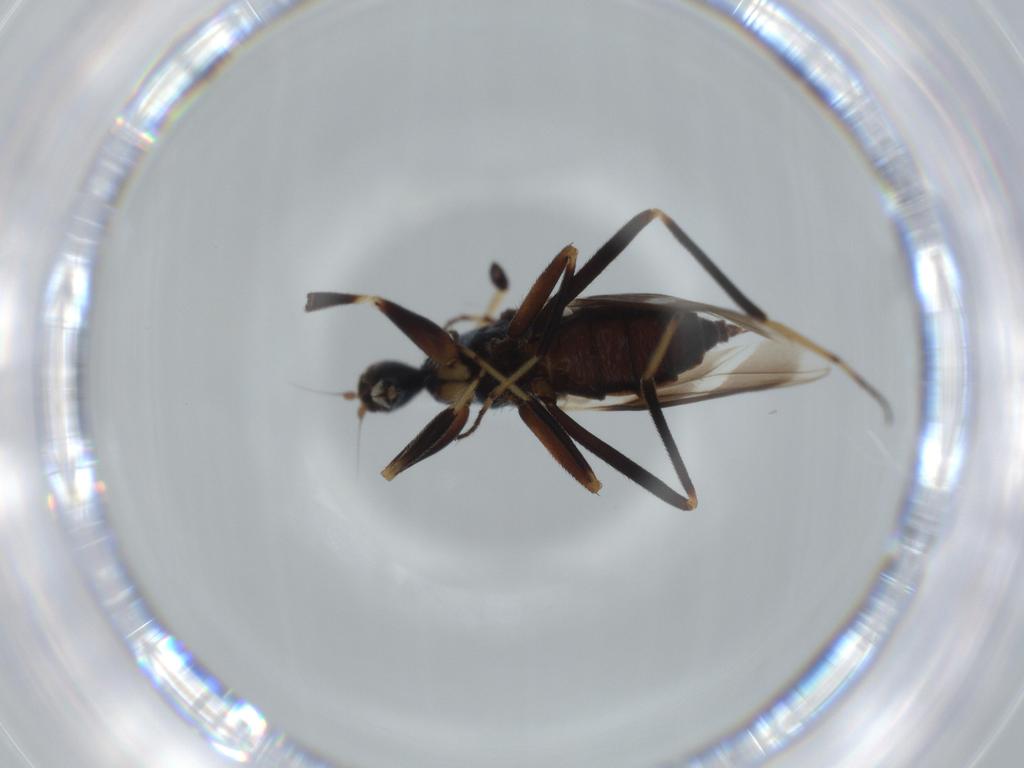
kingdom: Animalia
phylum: Arthropoda
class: Insecta
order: Diptera
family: Hybotidae
